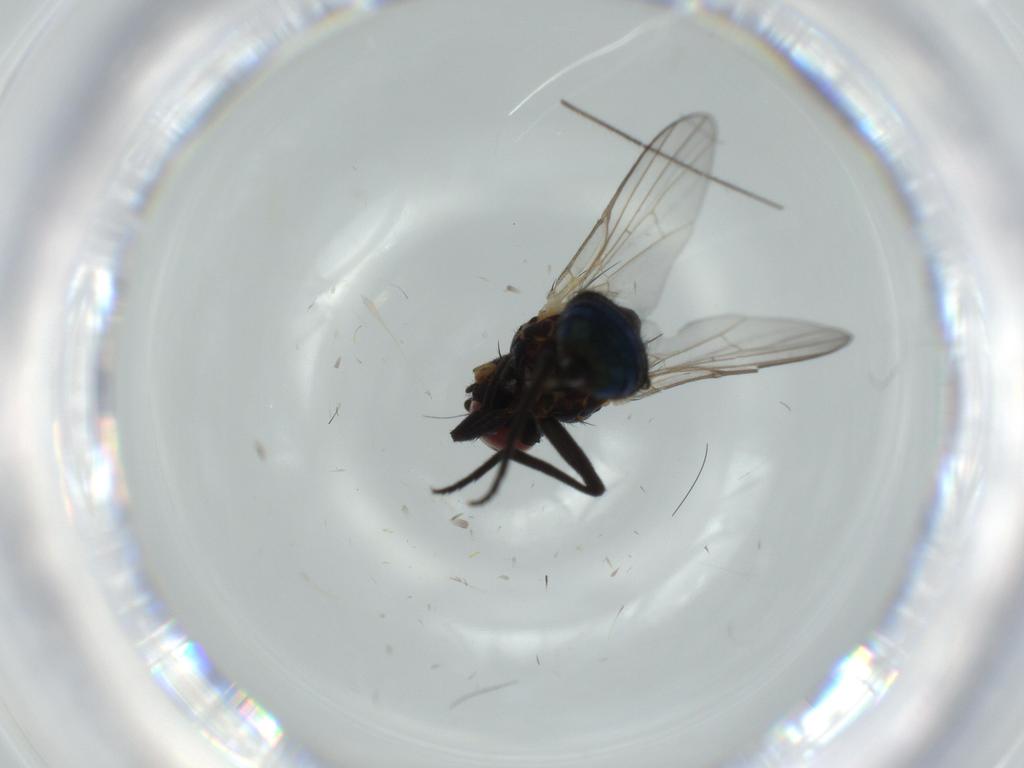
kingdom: Animalia
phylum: Arthropoda
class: Insecta
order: Diptera
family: Agromyzidae
